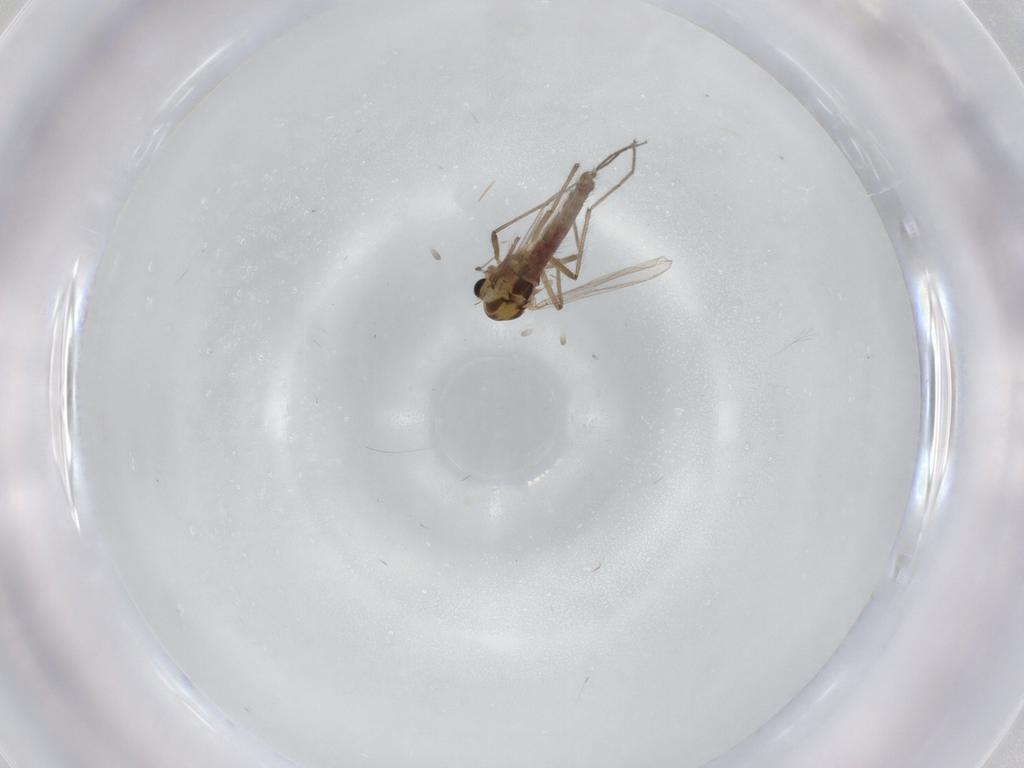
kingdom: Animalia
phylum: Arthropoda
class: Insecta
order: Diptera
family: Chironomidae
